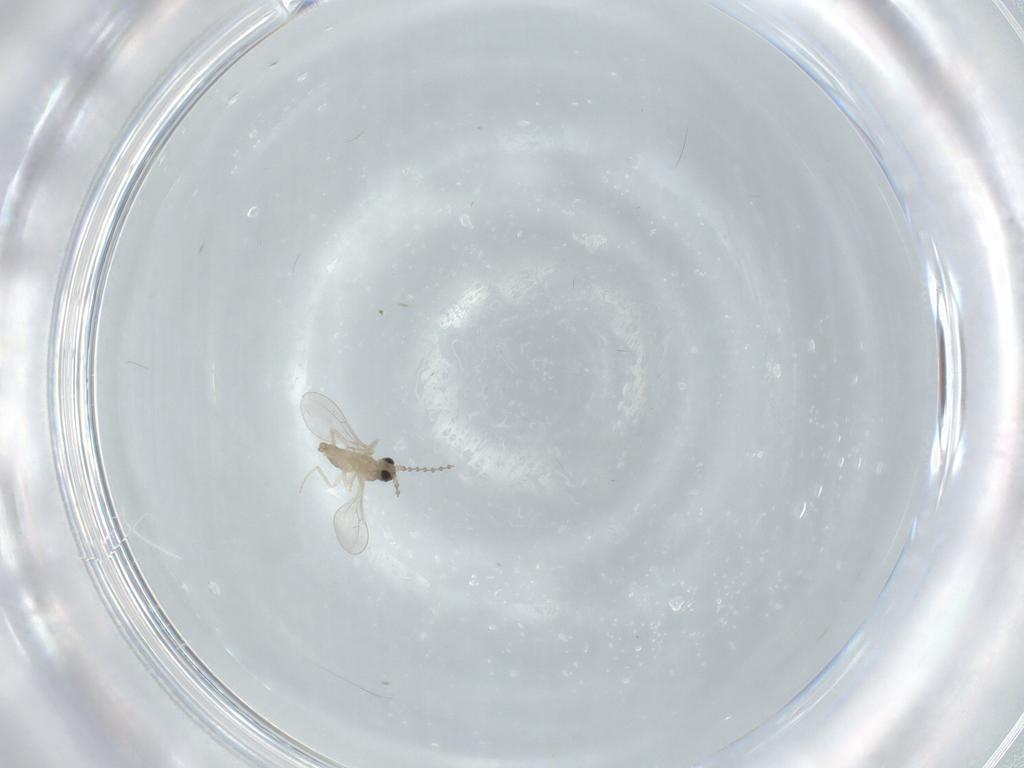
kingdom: Animalia
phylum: Arthropoda
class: Insecta
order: Diptera
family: Cecidomyiidae
